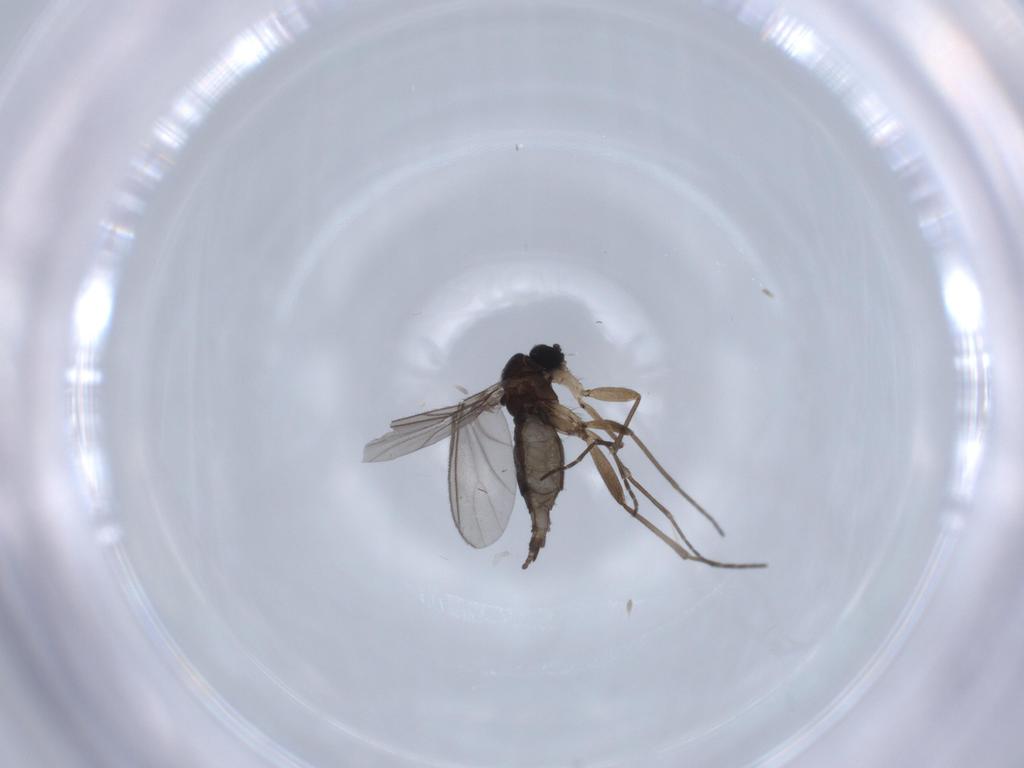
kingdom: Animalia
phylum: Arthropoda
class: Insecta
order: Diptera
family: Sciaridae
